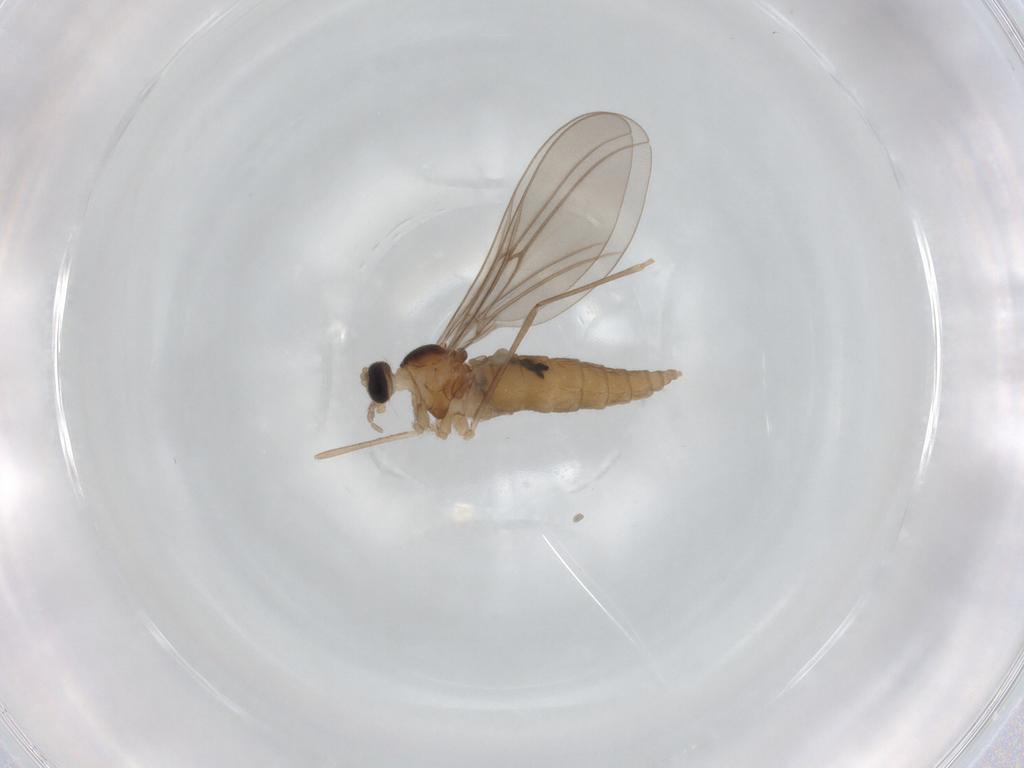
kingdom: Animalia
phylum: Arthropoda
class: Insecta
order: Diptera
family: Cecidomyiidae
